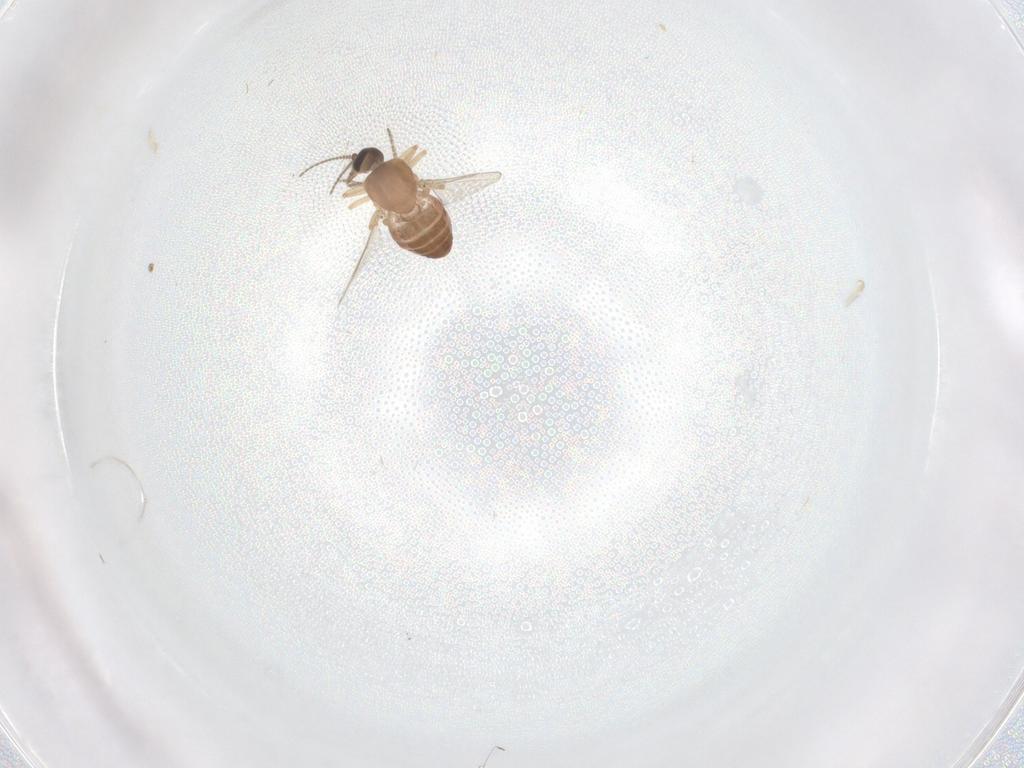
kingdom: Animalia
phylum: Arthropoda
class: Insecta
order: Diptera
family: Ceratopogonidae
